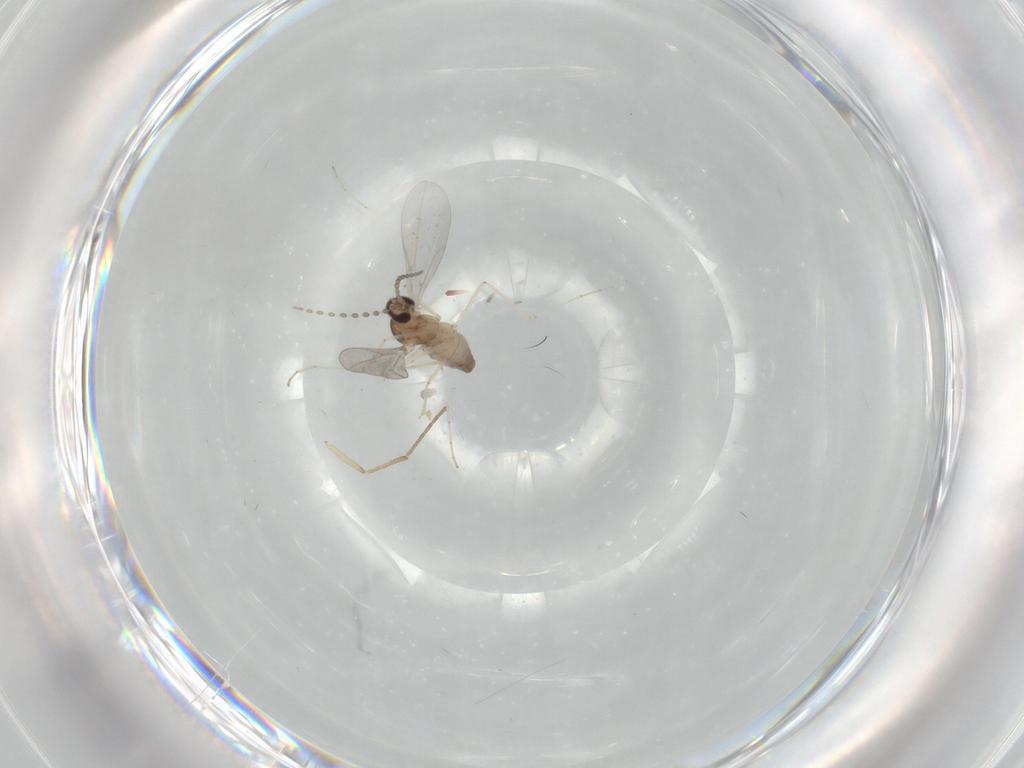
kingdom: Animalia
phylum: Arthropoda
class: Insecta
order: Diptera
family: Cecidomyiidae
